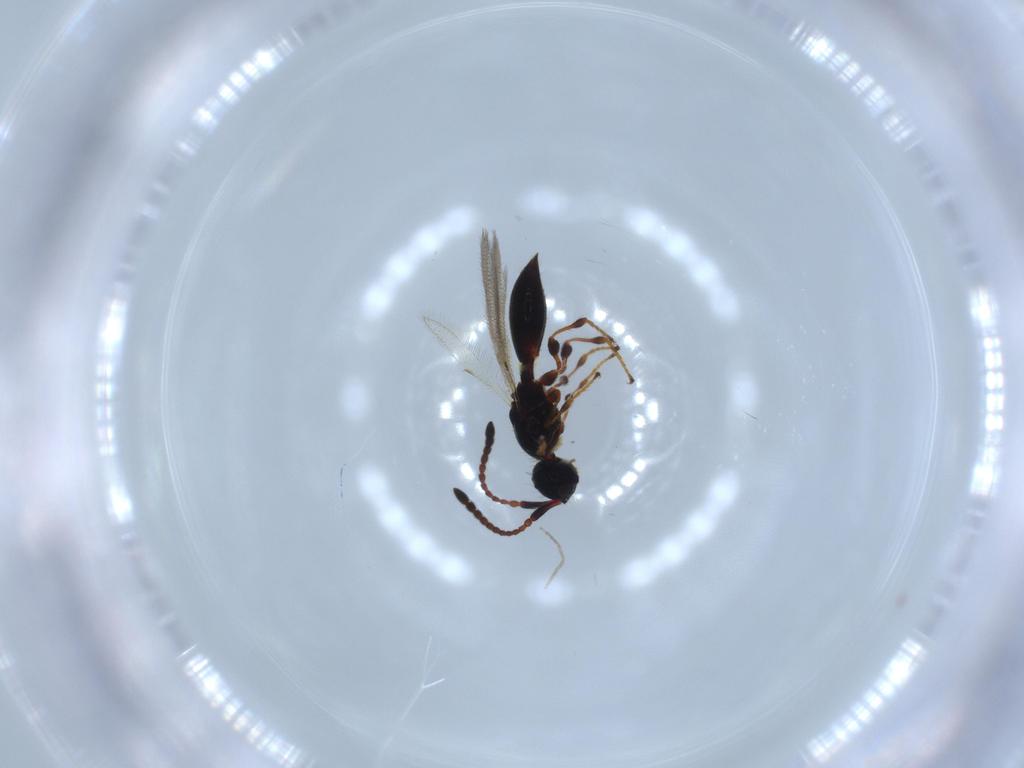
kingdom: Animalia
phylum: Arthropoda
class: Insecta
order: Hymenoptera
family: Diapriidae
